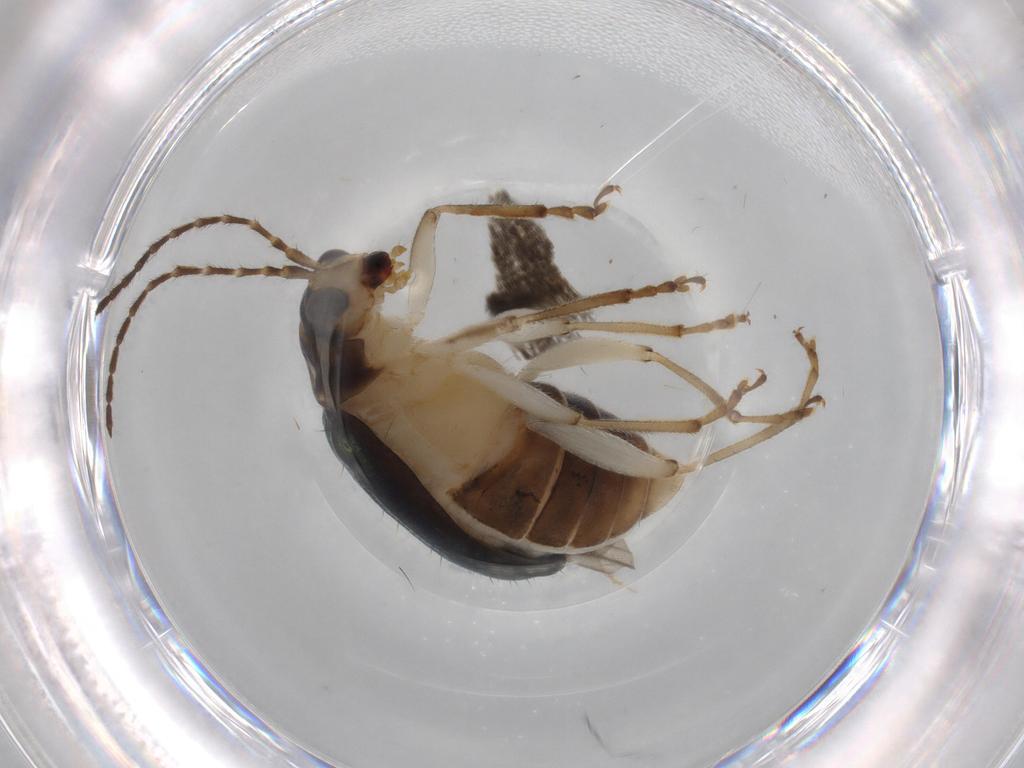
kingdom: Animalia
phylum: Arthropoda
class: Insecta
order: Coleoptera
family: Chrysomelidae
